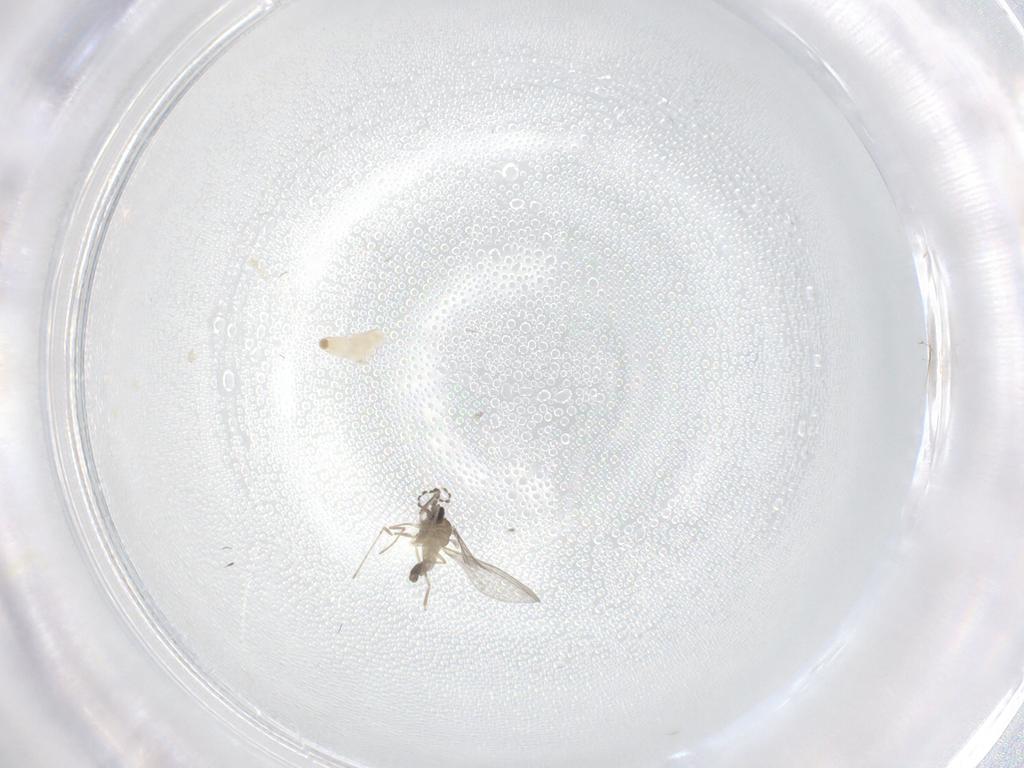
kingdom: Animalia
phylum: Arthropoda
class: Insecta
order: Diptera
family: Cecidomyiidae
